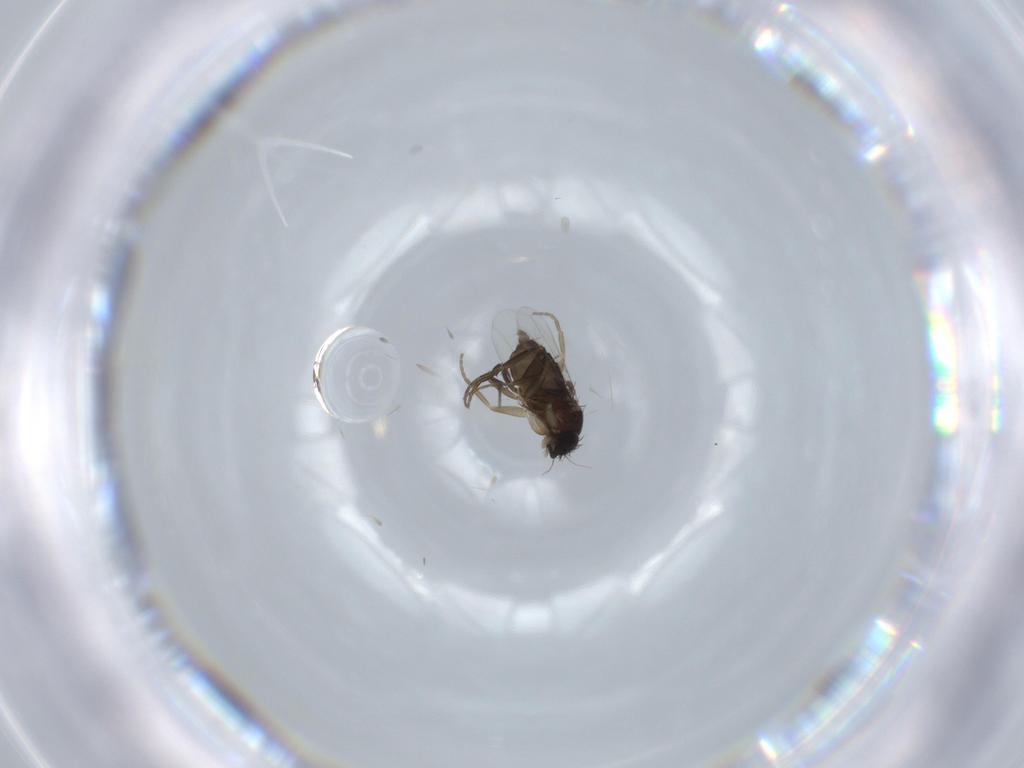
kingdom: Animalia
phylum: Arthropoda
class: Insecta
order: Diptera
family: Phoridae
